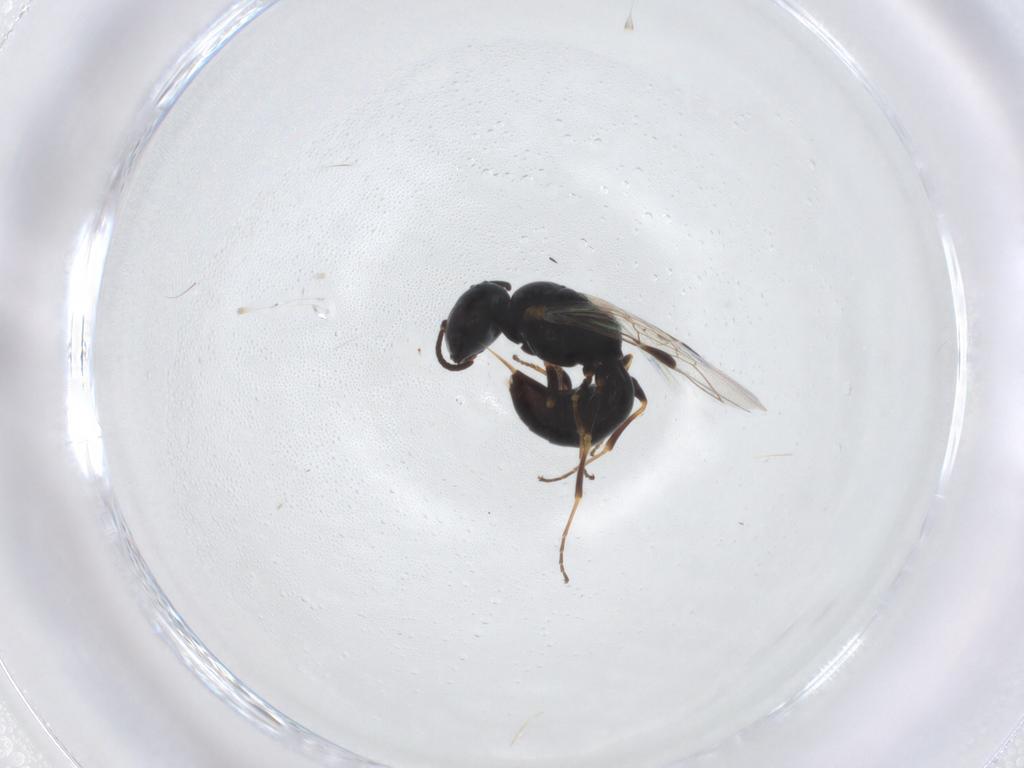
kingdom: Animalia
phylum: Arthropoda
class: Insecta
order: Hymenoptera
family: Crabronidae
